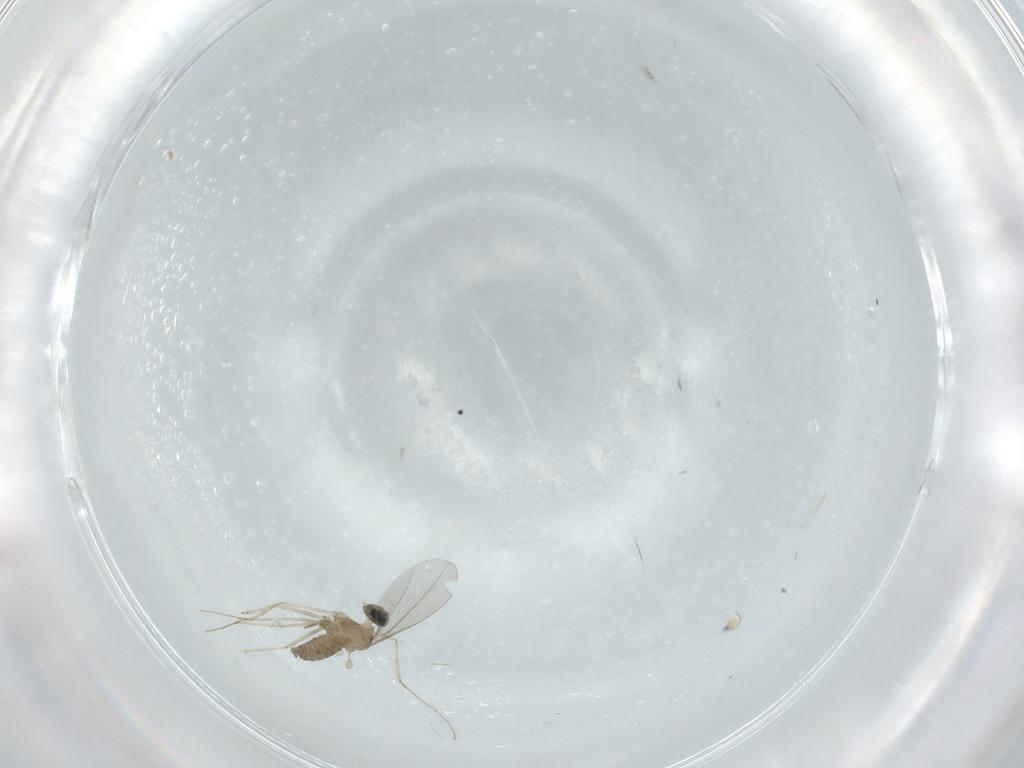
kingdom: Animalia
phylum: Arthropoda
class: Insecta
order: Diptera
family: Cecidomyiidae
